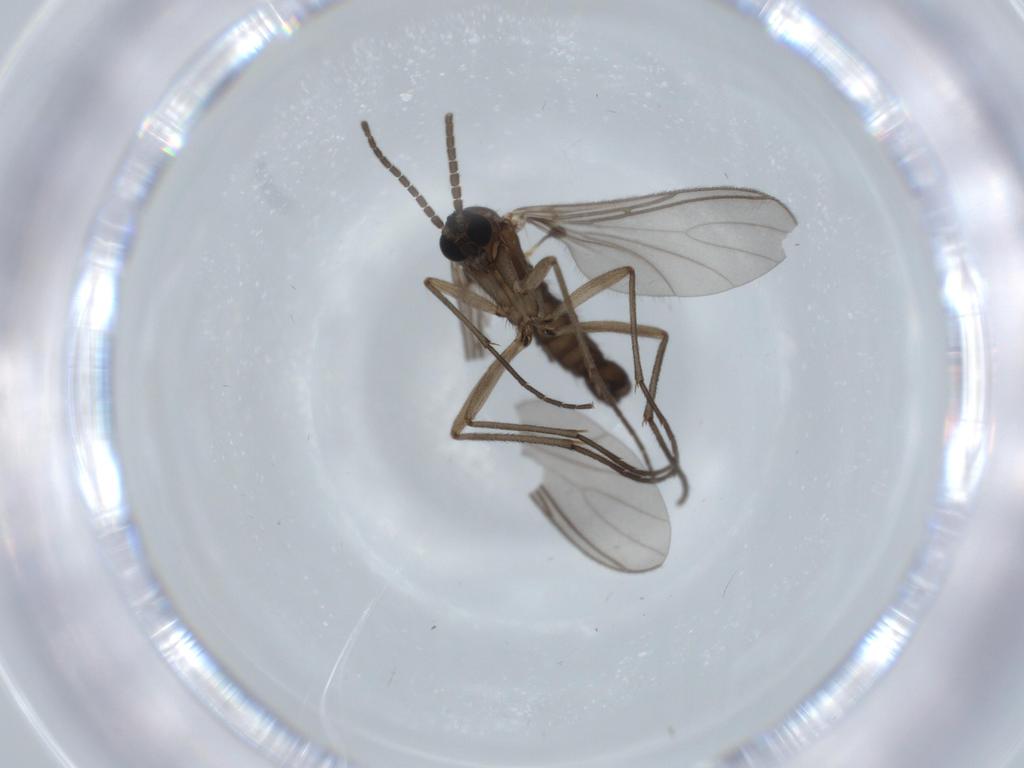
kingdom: Animalia
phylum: Arthropoda
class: Insecta
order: Diptera
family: Sciaridae
